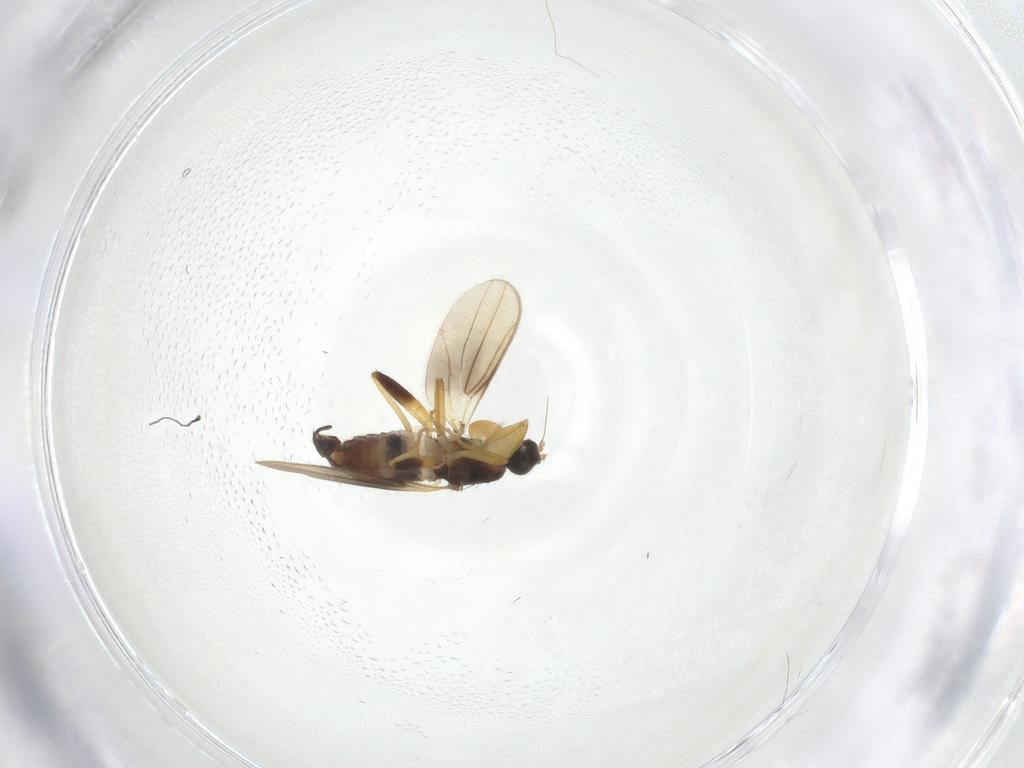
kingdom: Animalia
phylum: Arthropoda
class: Insecta
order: Diptera
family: Hybotidae
